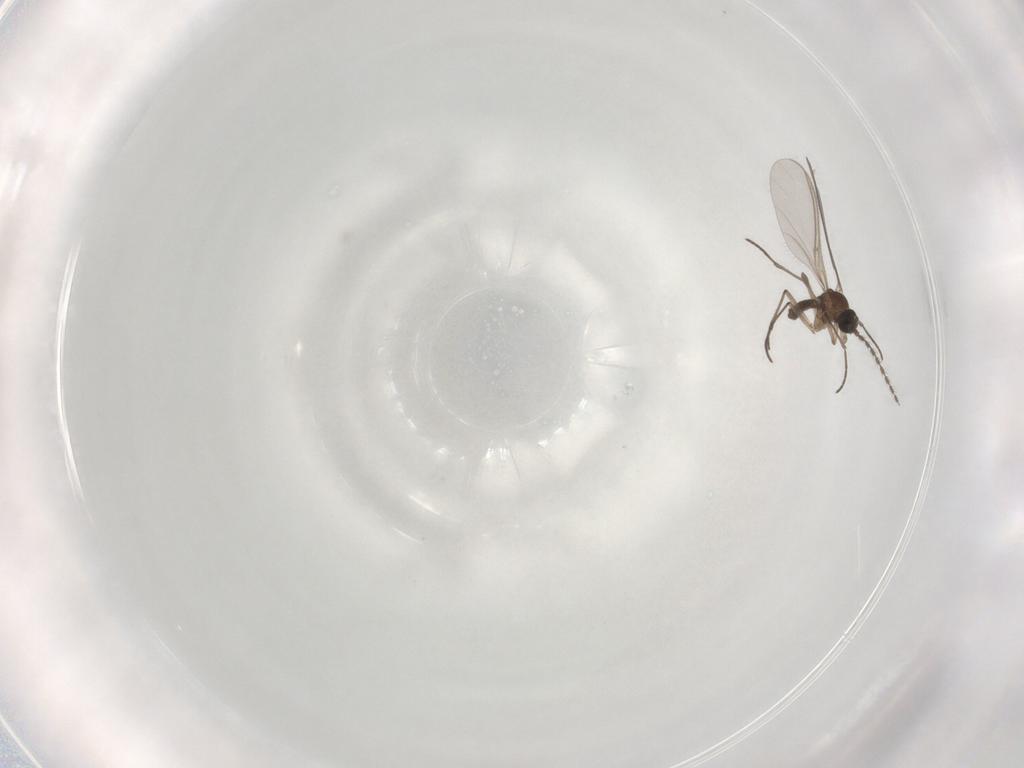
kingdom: Animalia
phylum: Arthropoda
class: Insecta
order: Diptera
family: Sciaridae
